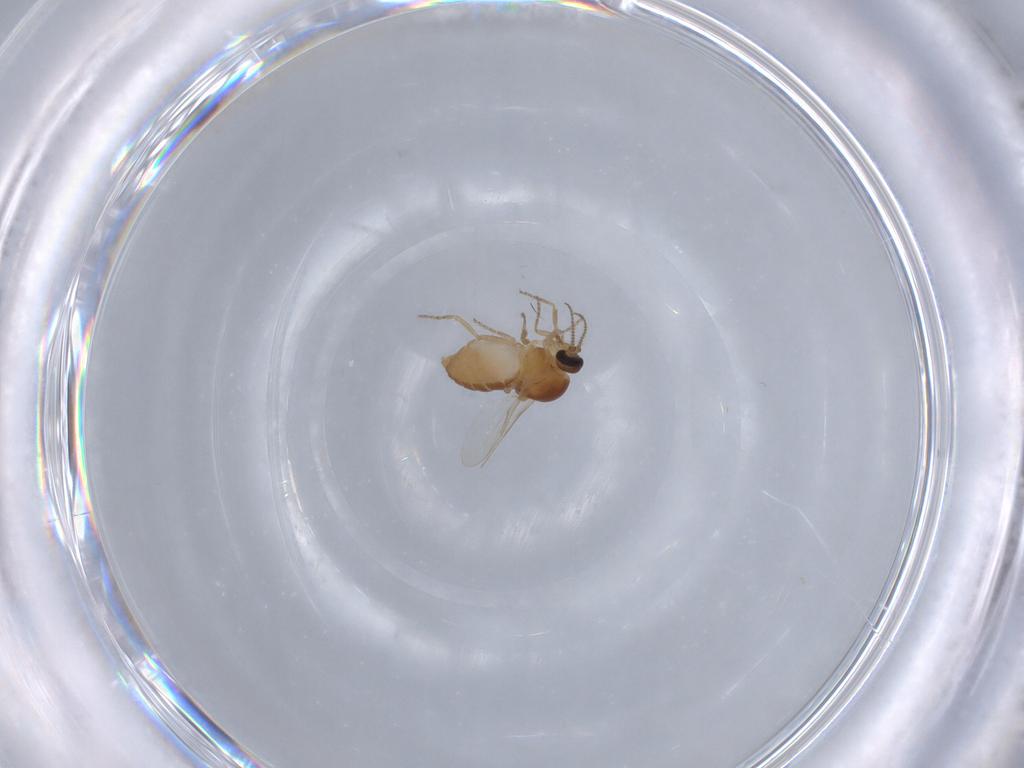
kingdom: Animalia
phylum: Arthropoda
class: Insecta
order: Diptera
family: Ceratopogonidae
